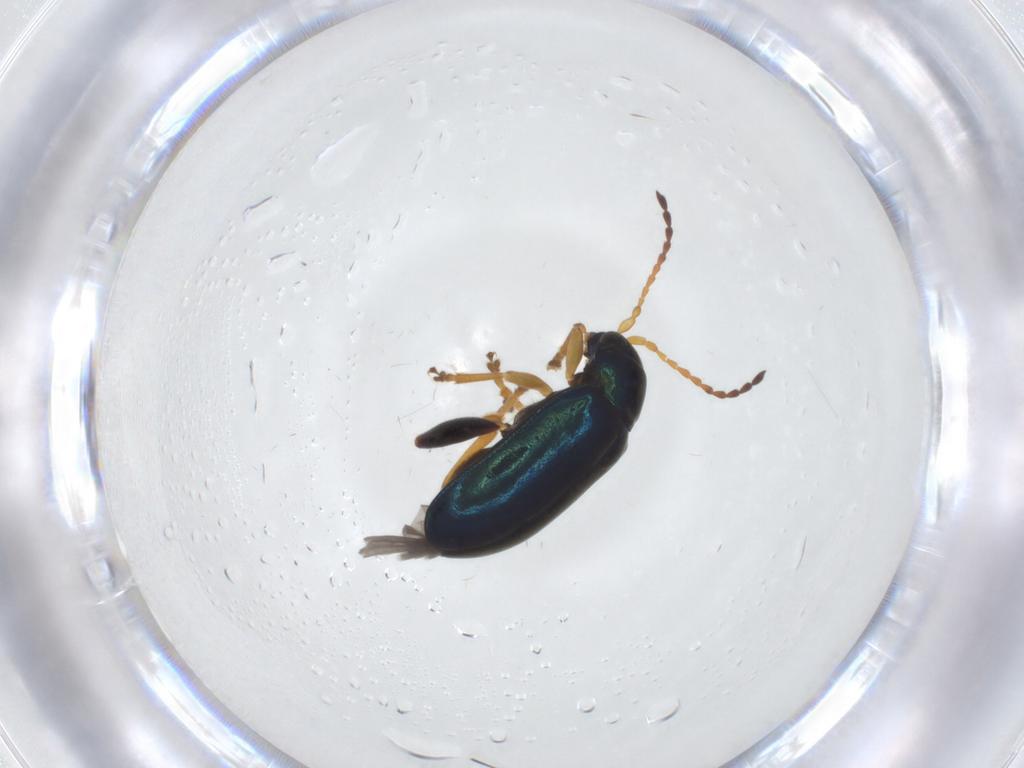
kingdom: Animalia
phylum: Arthropoda
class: Insecta
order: Coleoptera
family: Chrysomelidae
